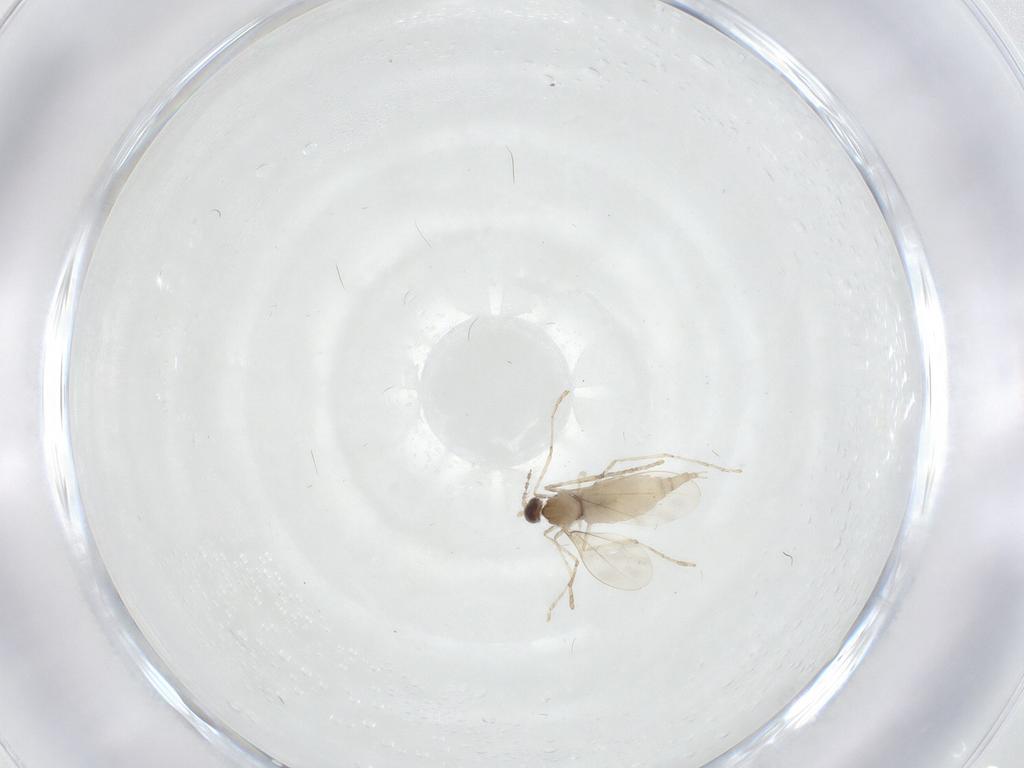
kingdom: Animalia
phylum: Arthropoda
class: Insecta
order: Diptera
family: Cecidomyiidae
